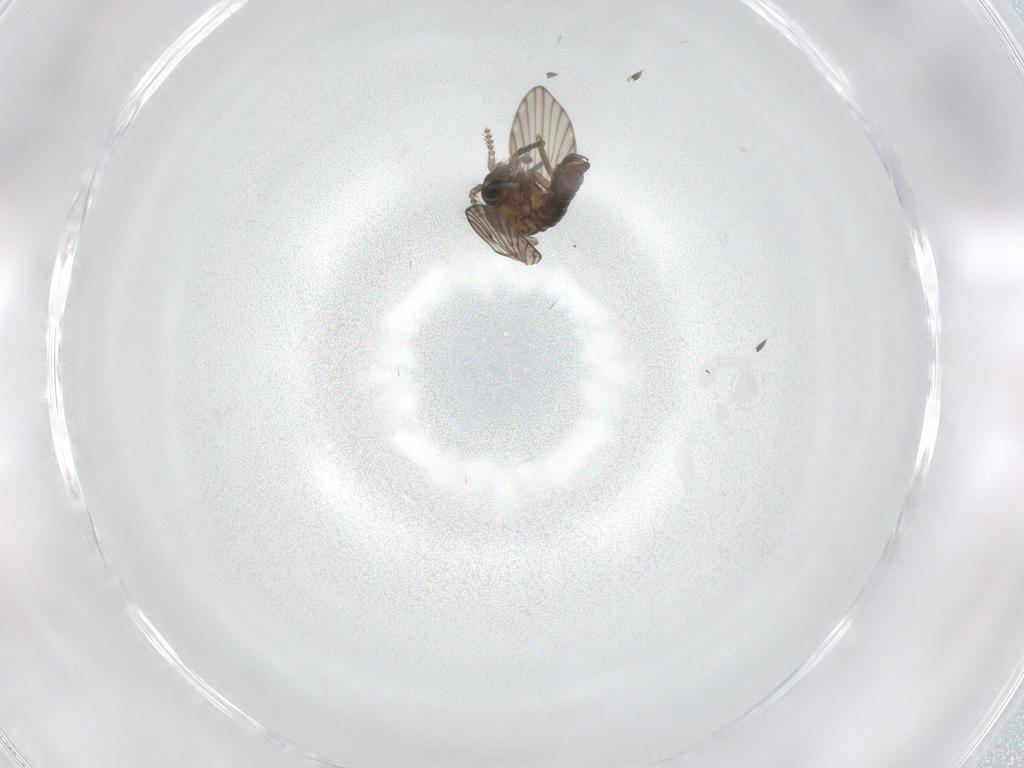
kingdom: Animalia
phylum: Arthropoda
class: Insecta
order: Diptera
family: Psychodidae
